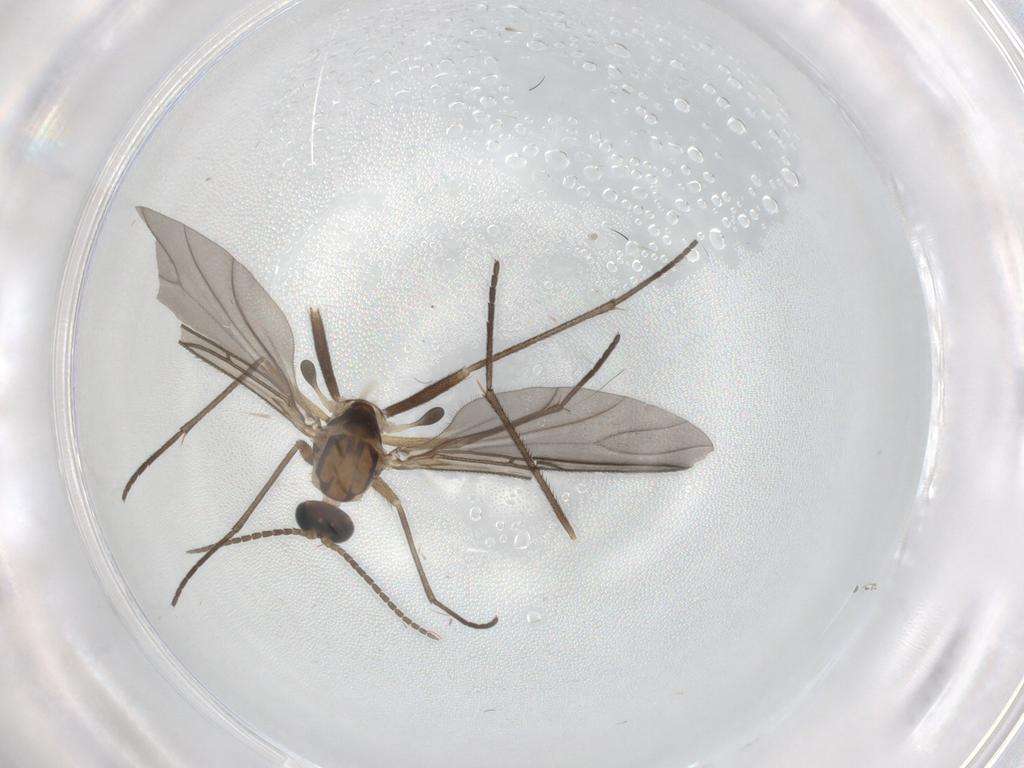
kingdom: Animalia
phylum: Arthropoda
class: Insecta
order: Diptera
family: Sciaridae
